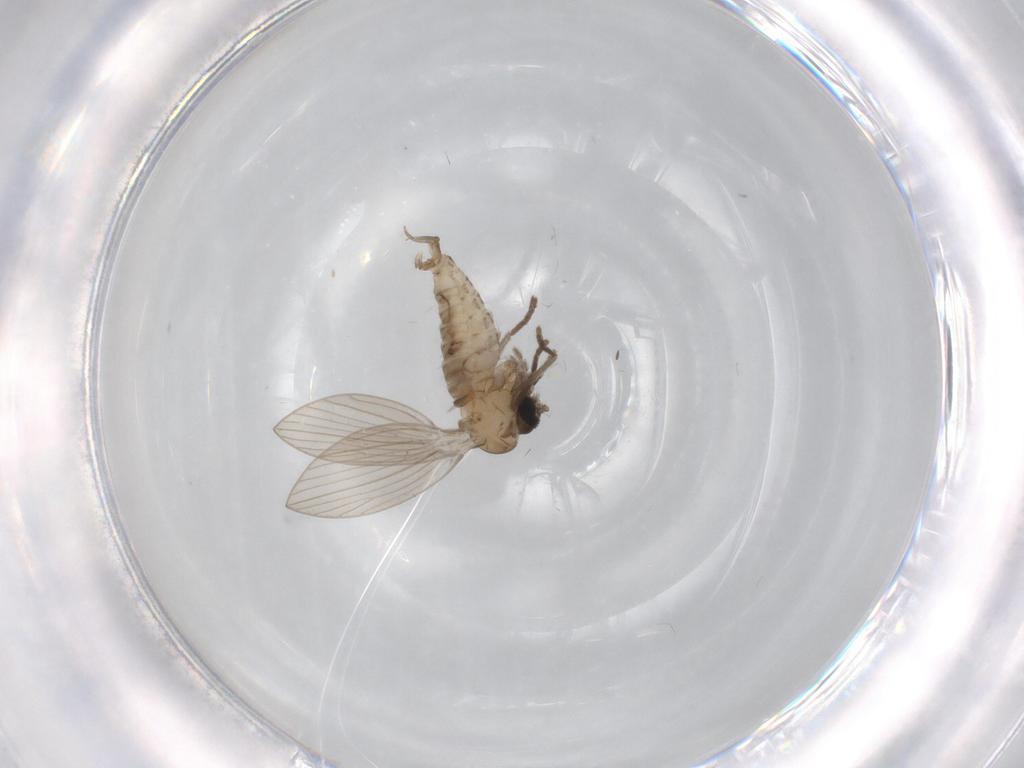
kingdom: Animalia
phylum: Arthropoda
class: Insecta
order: Diptera
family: Psychodidae
